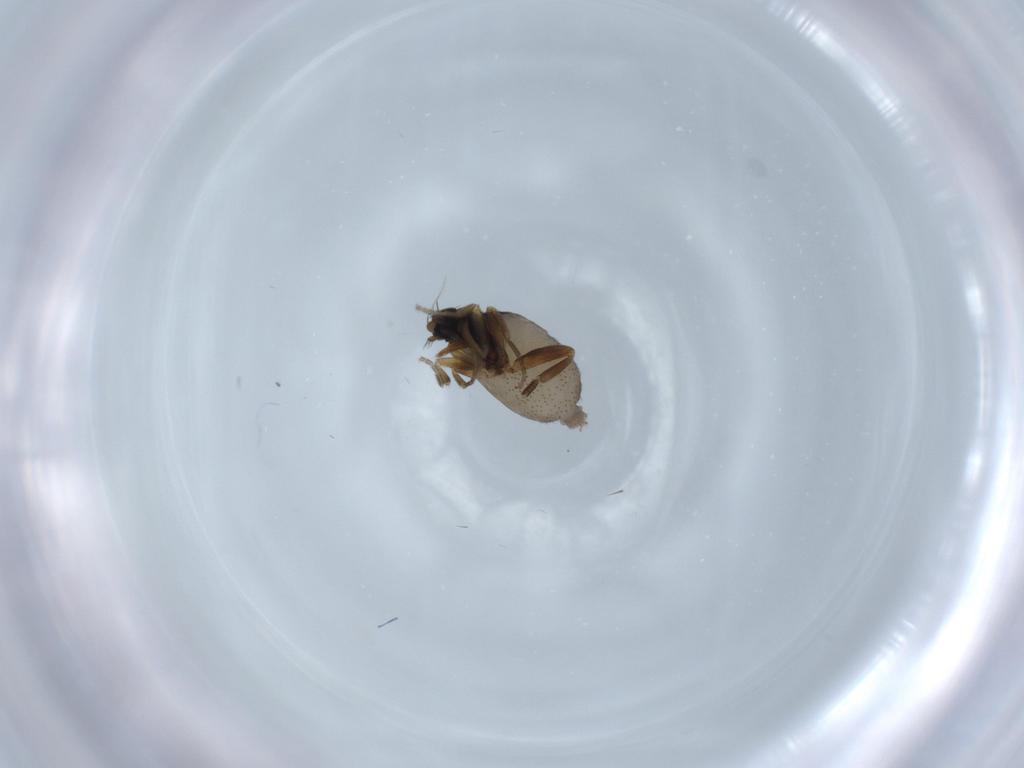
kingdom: Animalia
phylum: Arthropoda
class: Insecta
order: Diptera
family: Phoridae
